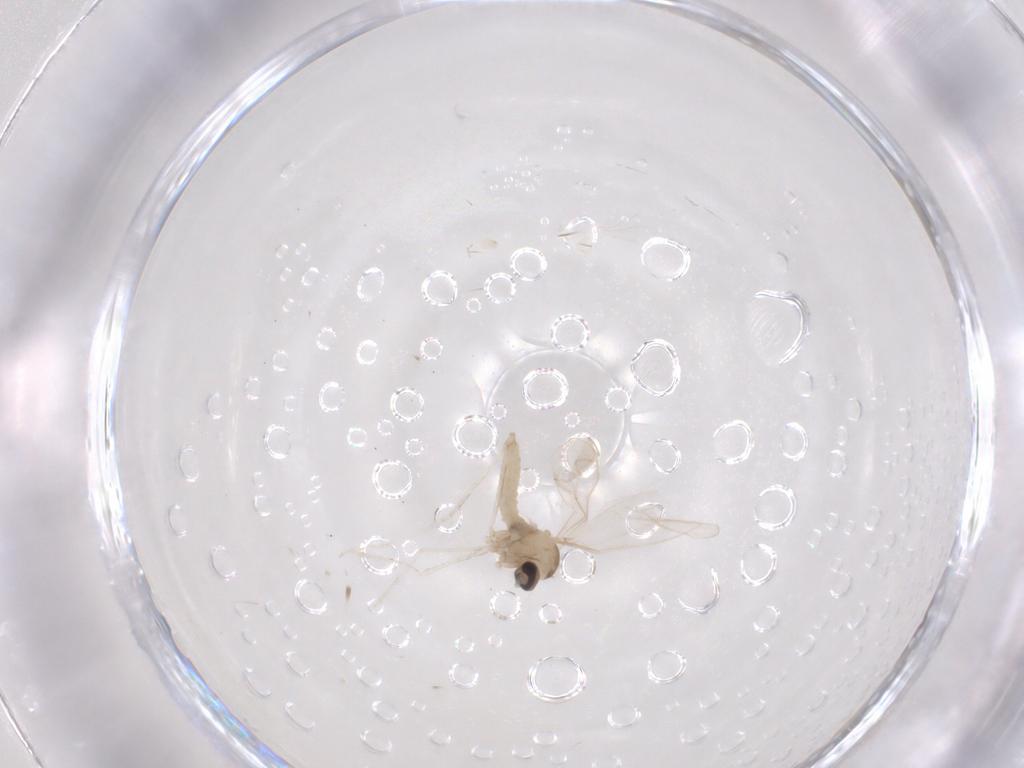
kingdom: Animalia
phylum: Arthropoda
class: Insecta
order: Diptera
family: Cecidomyiidae
